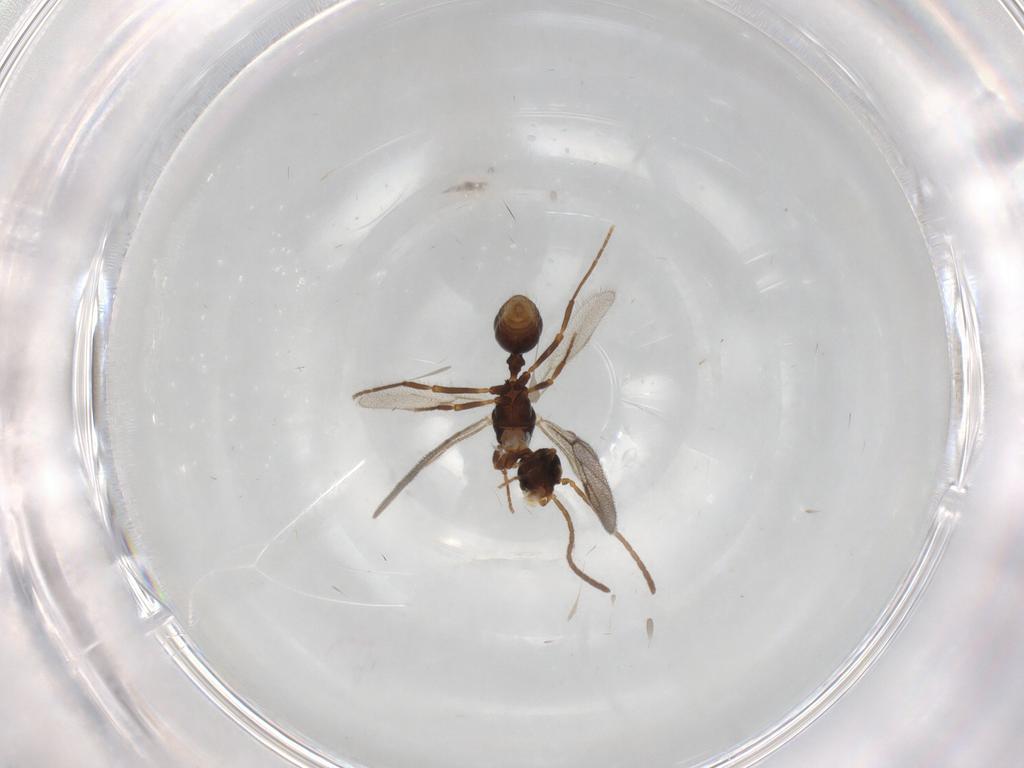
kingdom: Animalia
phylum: Arthropoda
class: Insecta
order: Hymenoptera
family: Formicidae
